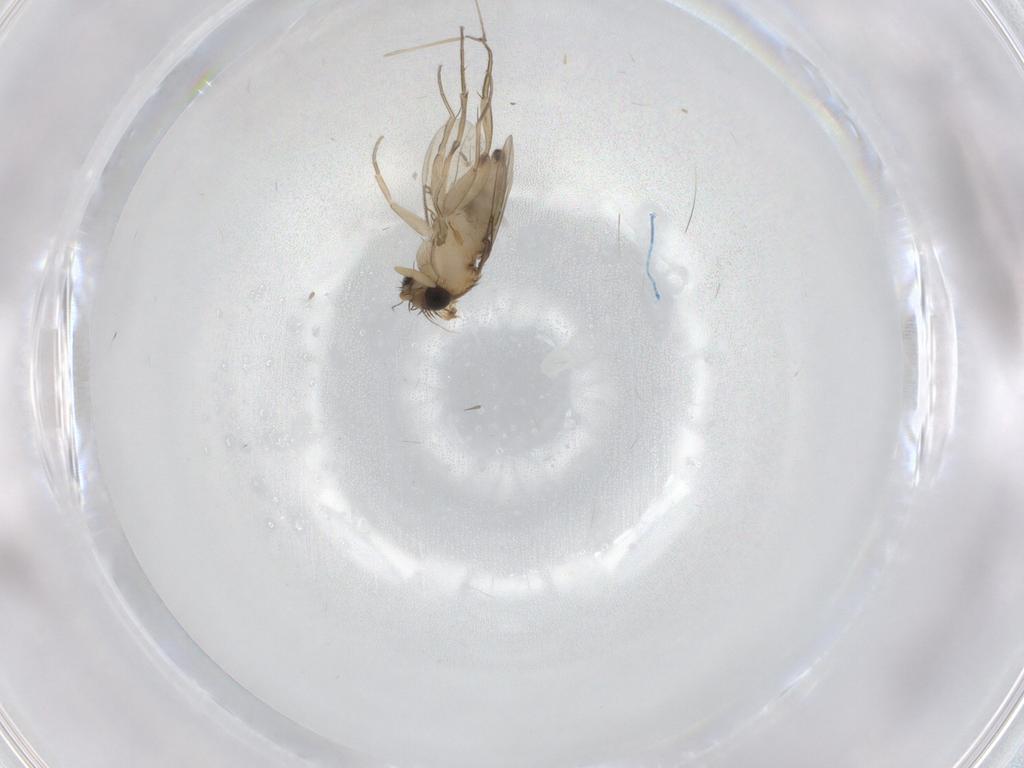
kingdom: Animalia
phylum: Arthropoda
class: Insecta
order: Diptera
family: Phoridae
